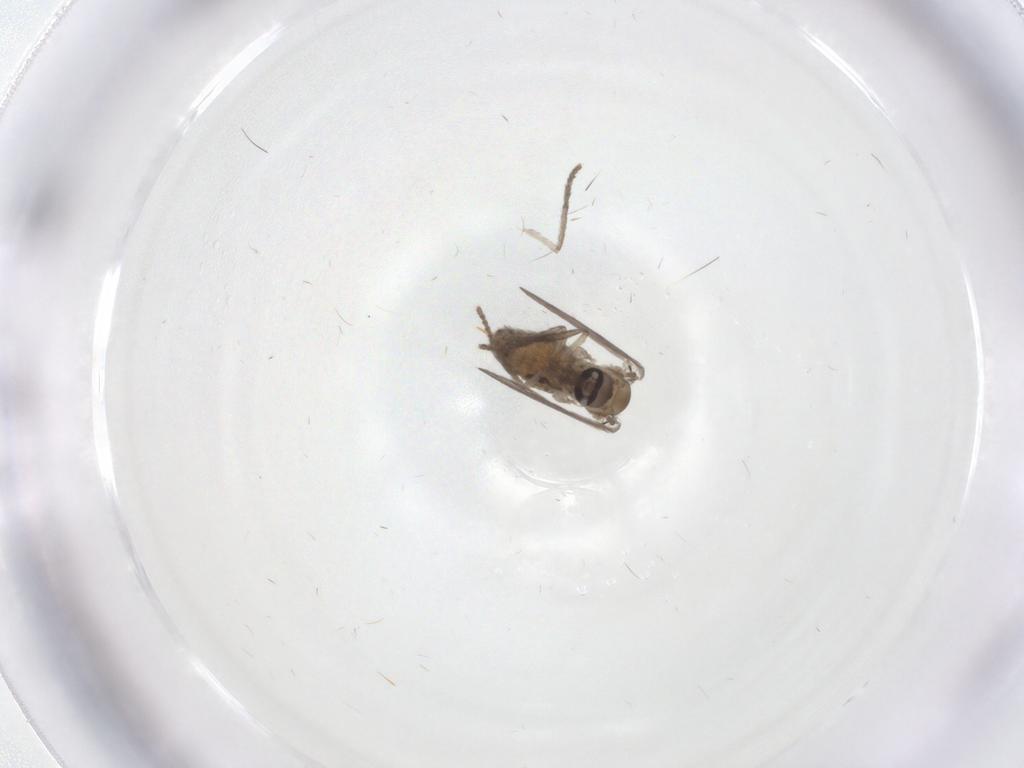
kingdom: Animalia
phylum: Arthropoda
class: Insecta
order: Diptera
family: Psychodidae
